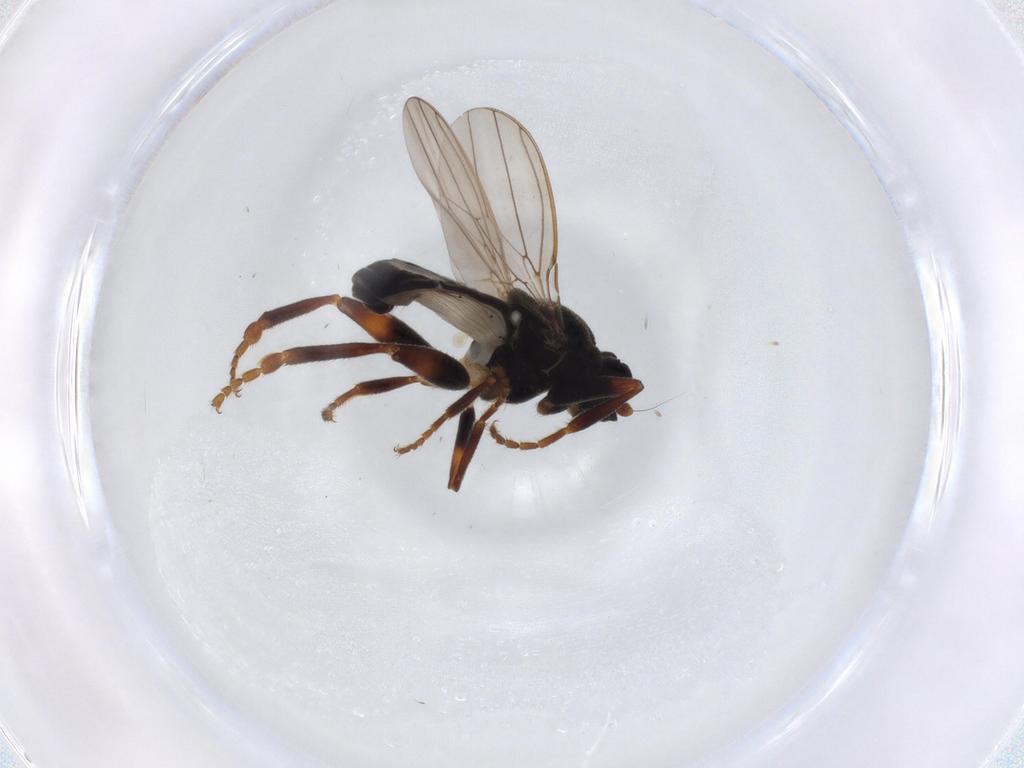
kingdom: Animalia
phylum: Arthropoda
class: Insecta
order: Diptera
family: Sphaeroceridae
